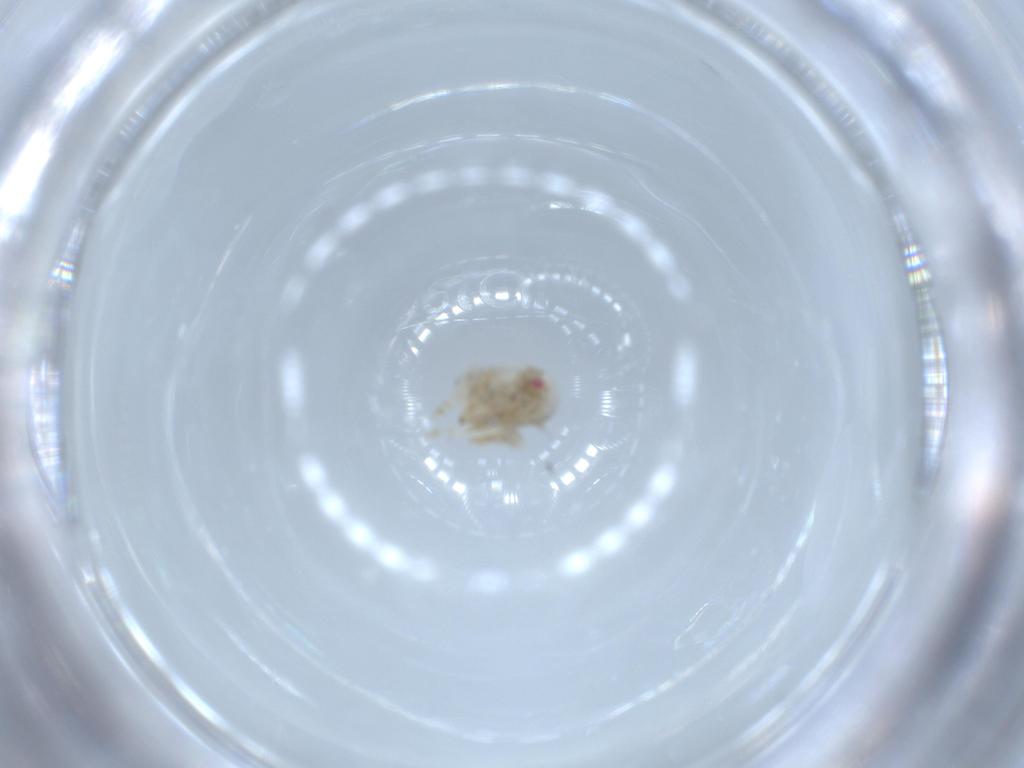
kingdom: Animalia
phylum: Arthropoda
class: Insecta
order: Hemiptera
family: Acanaloniidae
